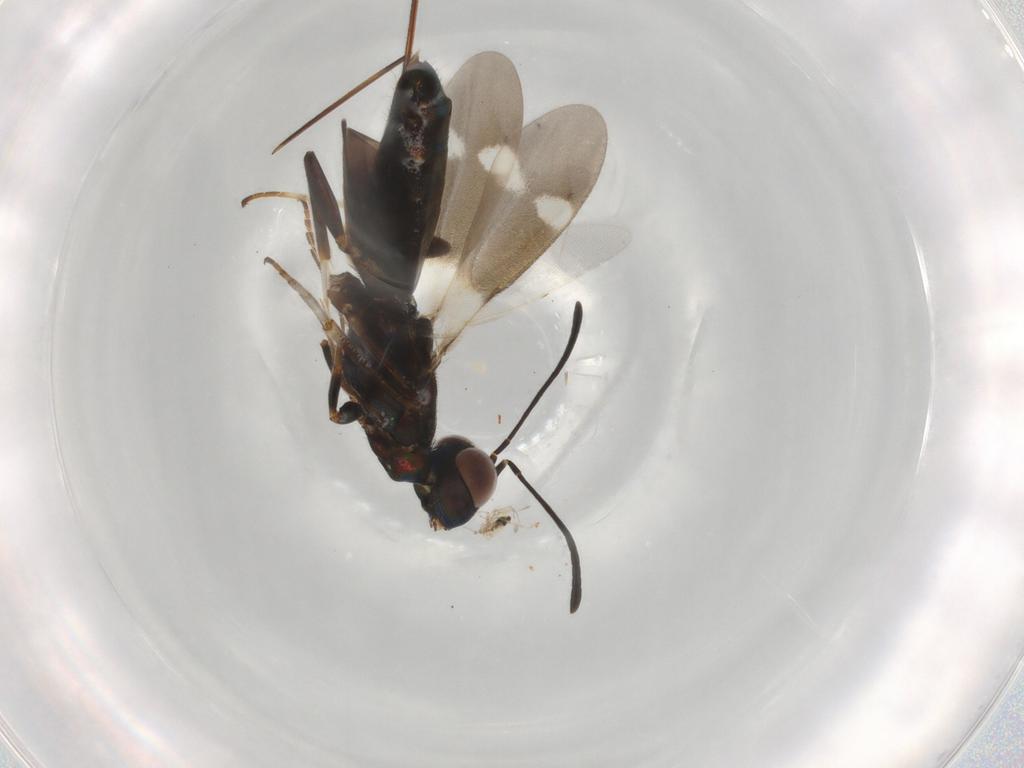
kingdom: Animalia
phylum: Arthropoda
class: Insecta
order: Hymenoptera
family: Eupelmidae
